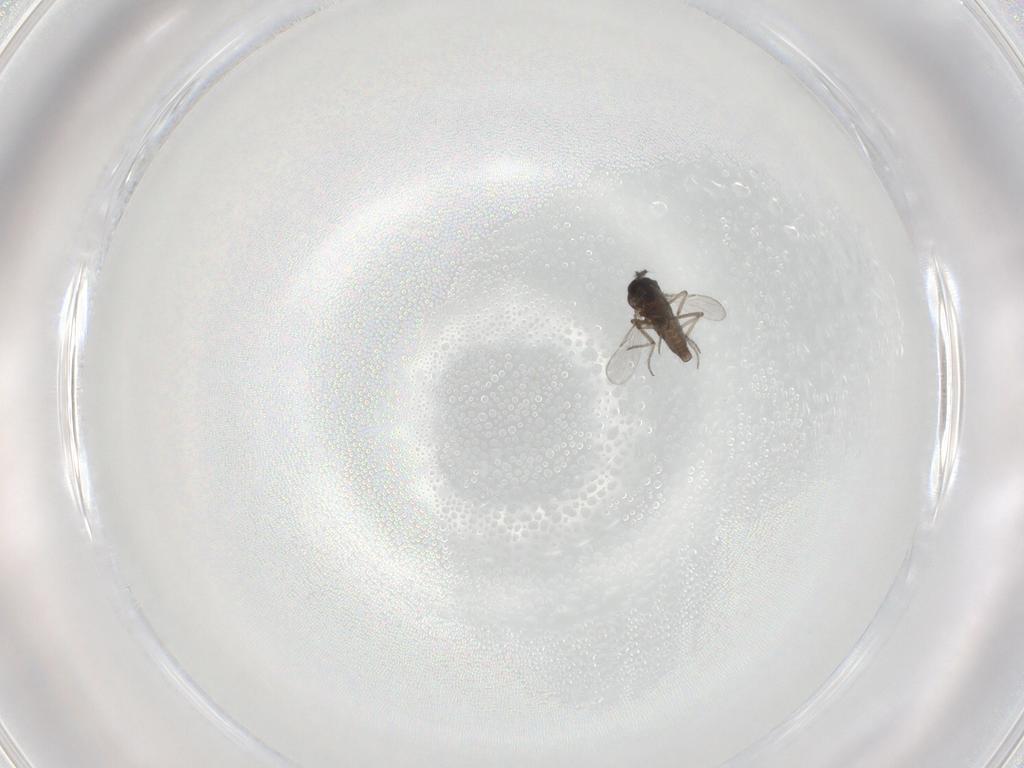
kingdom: Animalia
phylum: Arthropoda
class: Insecta
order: Diptera
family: Ceratopogonidae
